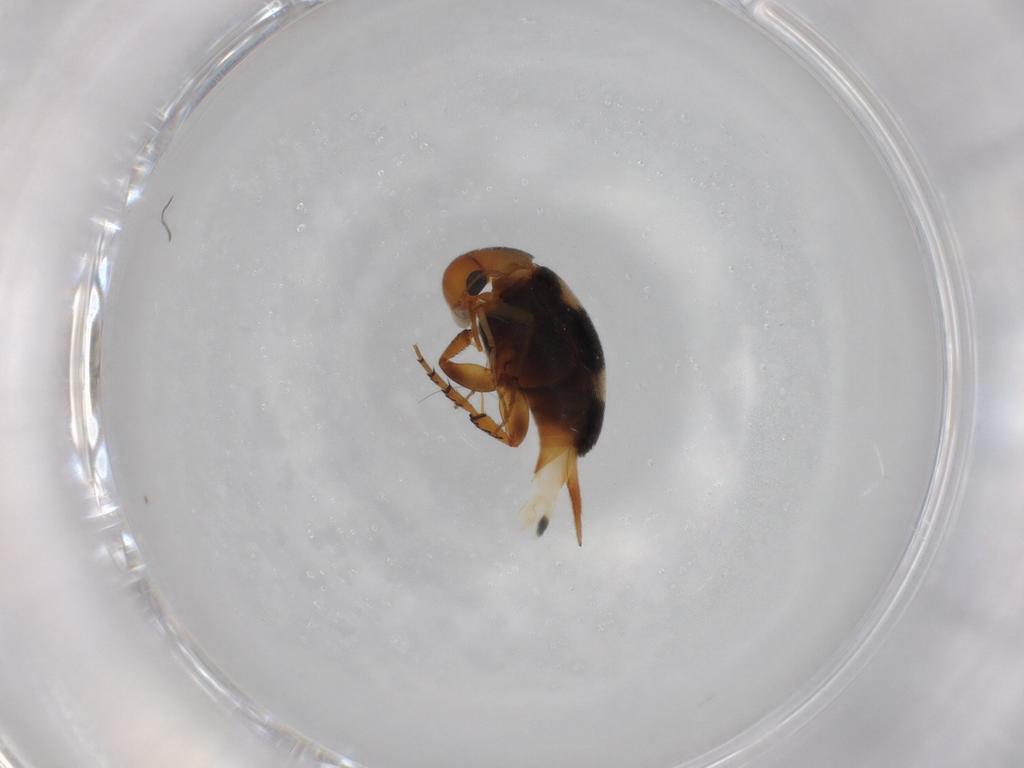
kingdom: Animalia
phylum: Arthropoda
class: Insecta
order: Coleoptera
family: Mordellidae
